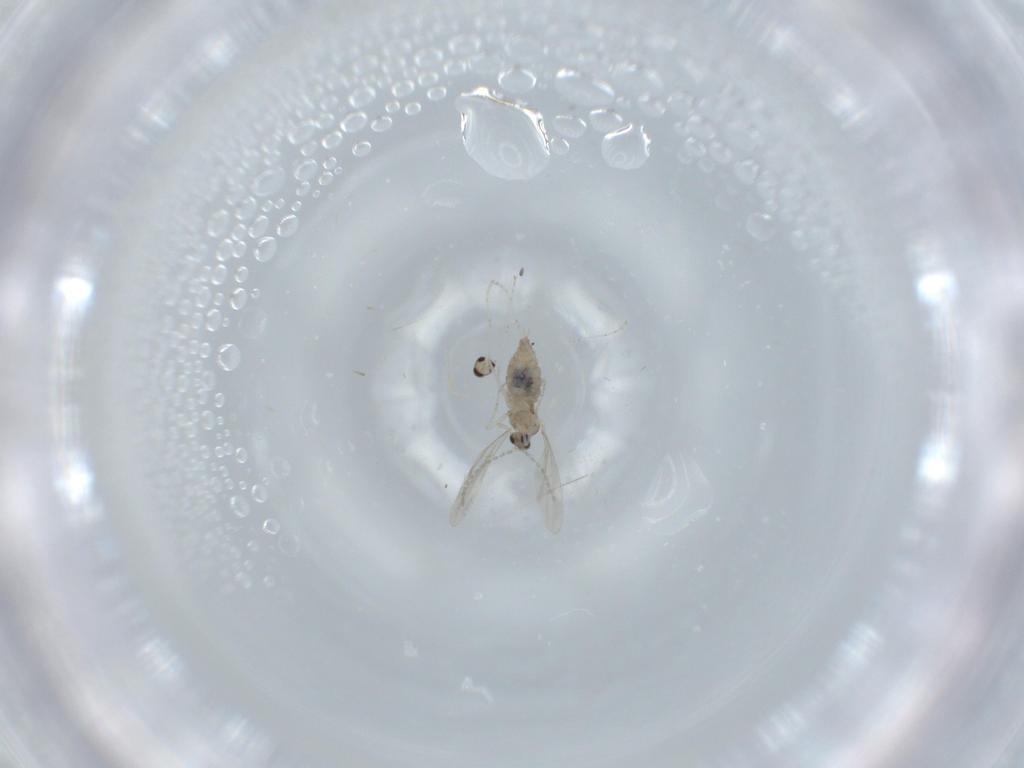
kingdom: Animalia
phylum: Arthropoda
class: Insecta
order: Diptera
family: Cecidomyiidae
